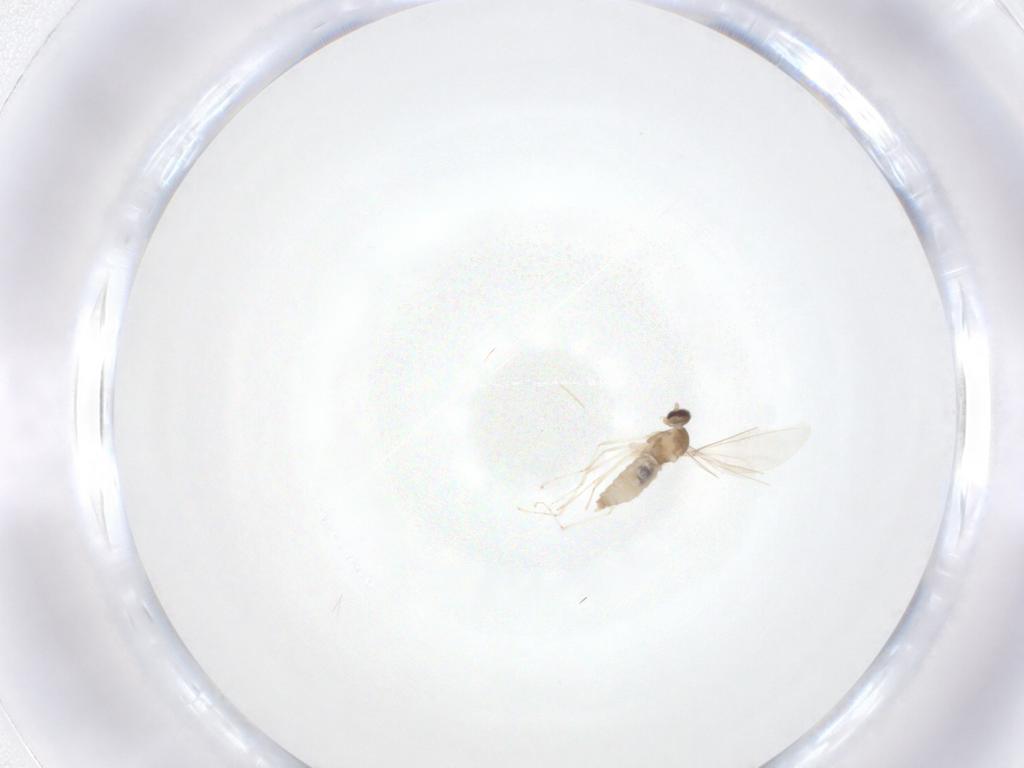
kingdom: Animalia
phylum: Arthropoda
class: Insecta
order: Diptera
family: Cecidomyiidae
